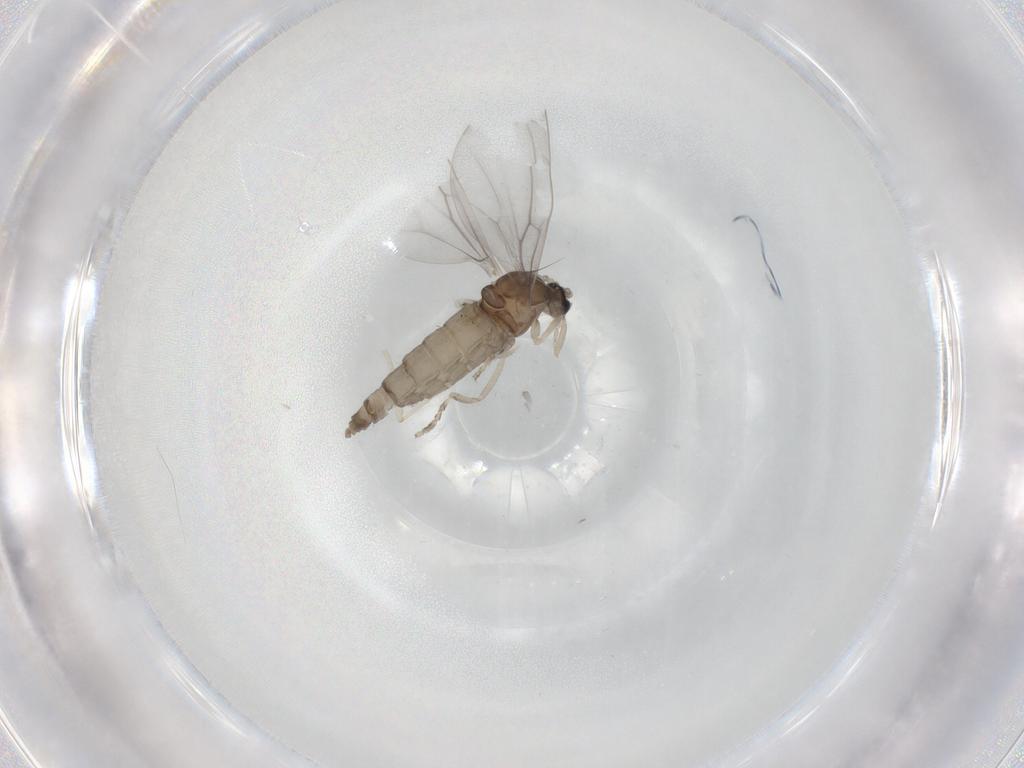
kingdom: Animalia
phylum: Arthropoda
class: Insecta
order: Diptera
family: Cecidomyiidae
